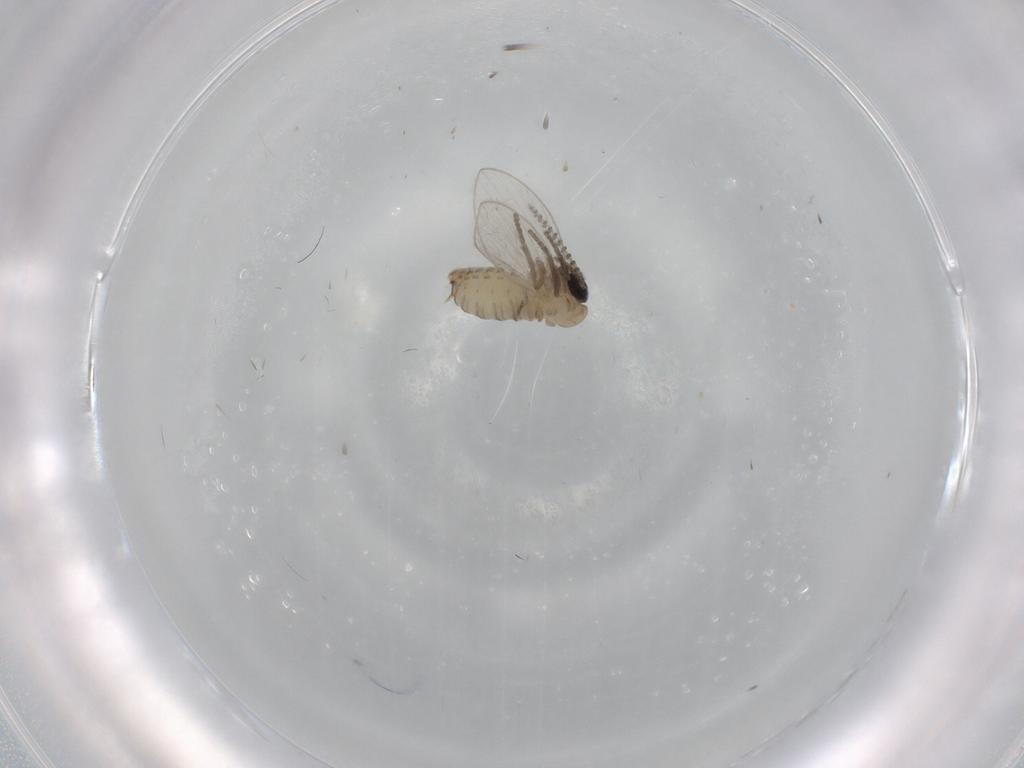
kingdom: Animalia
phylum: Arthropoda
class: Insecta
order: Diptera
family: Psychodidae
